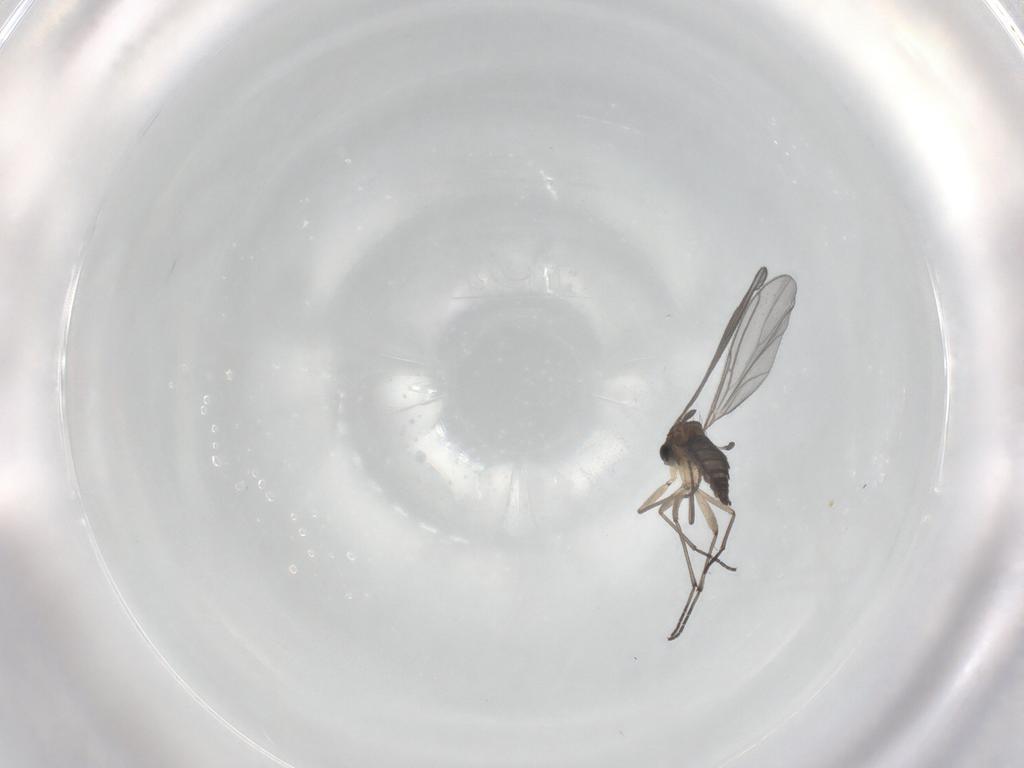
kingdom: Animalia
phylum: Arthropoda
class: Insecta
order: Diptera
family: Sciaridae
